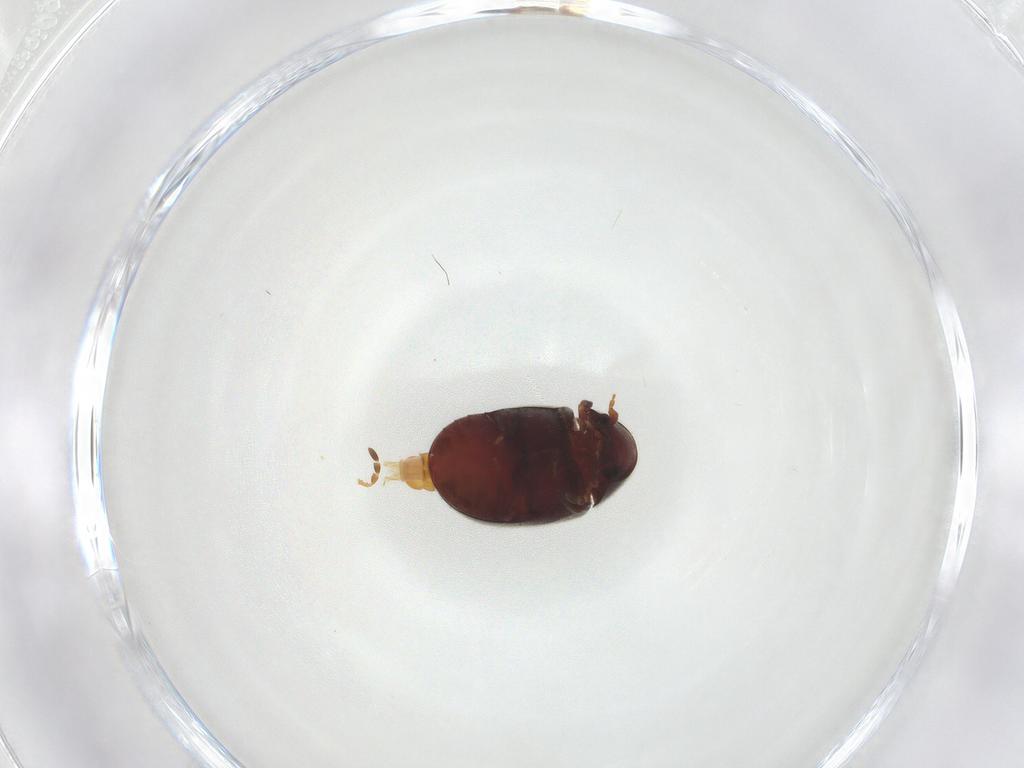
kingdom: Animalia
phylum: Arthropoda
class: Insecta
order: Coleoptera
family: Ptinidae
